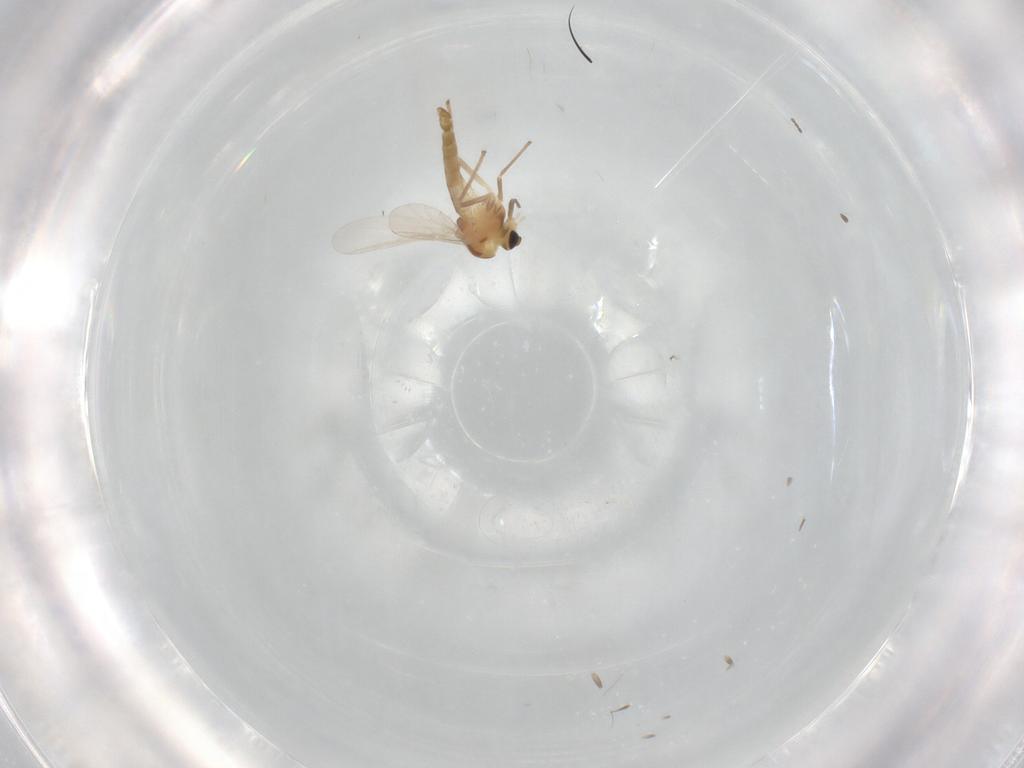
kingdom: Animalia
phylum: Arthropoda
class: Insecta
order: Diptera
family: Chironomidae
